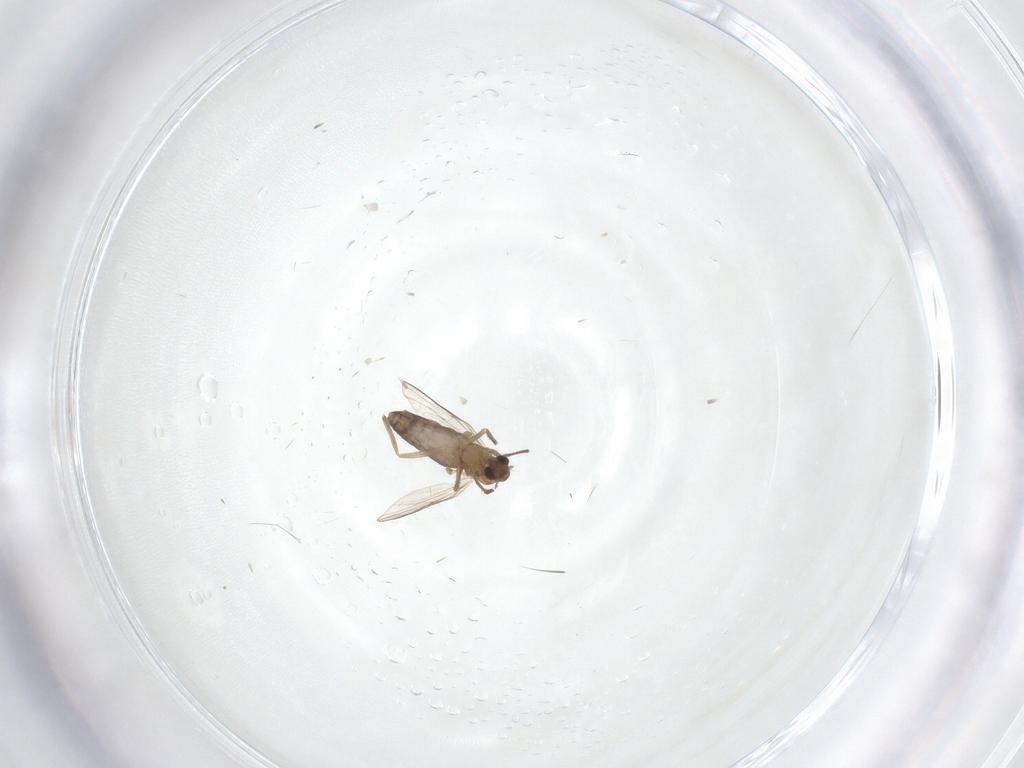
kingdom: Animalia
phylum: Arthropoda
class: Insecta
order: Diptera
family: Chironomidae
